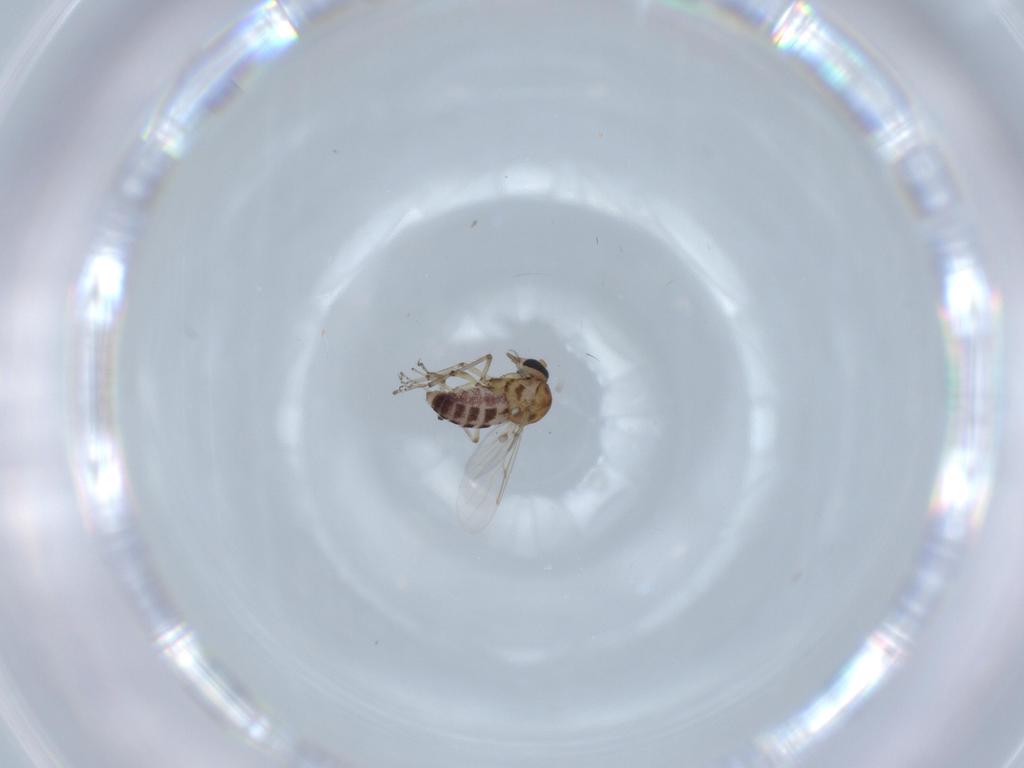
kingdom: Animalia
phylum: Arthropoda
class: Insecta
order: Diptera
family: Ceratopogonidae
